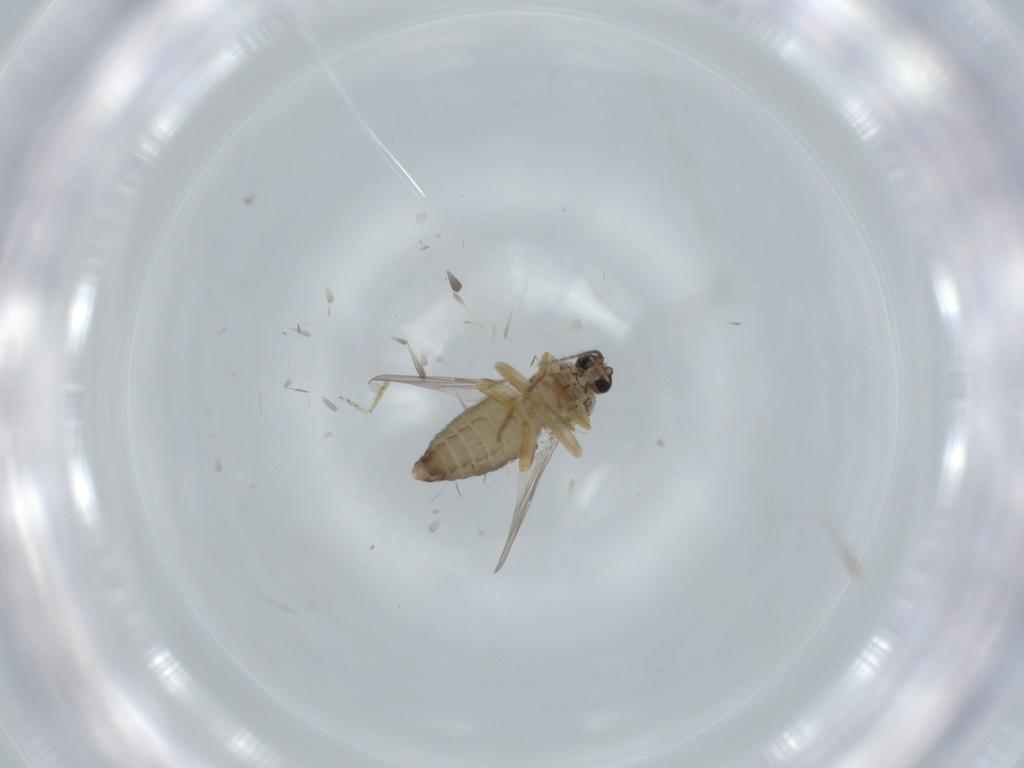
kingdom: Animalia
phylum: Arthropoda
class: Insecta
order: Diptera
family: Ceratopogonidae
